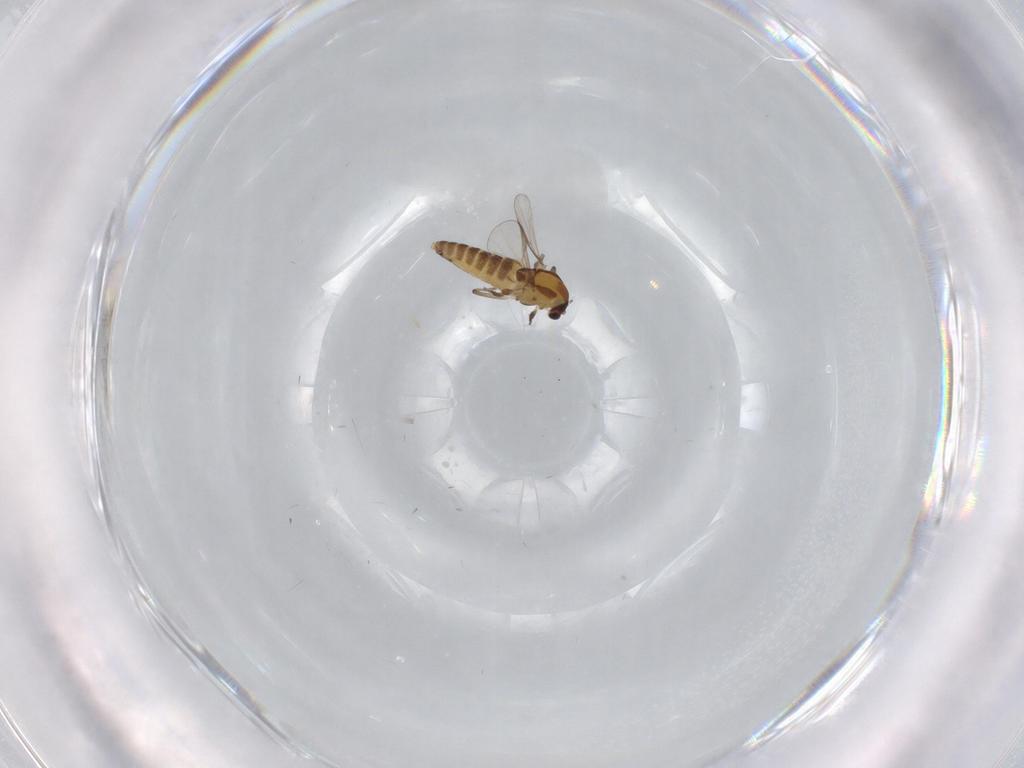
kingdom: Animalia
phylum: Arthropoda
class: Insecta
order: Diptera
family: Chironomidae
